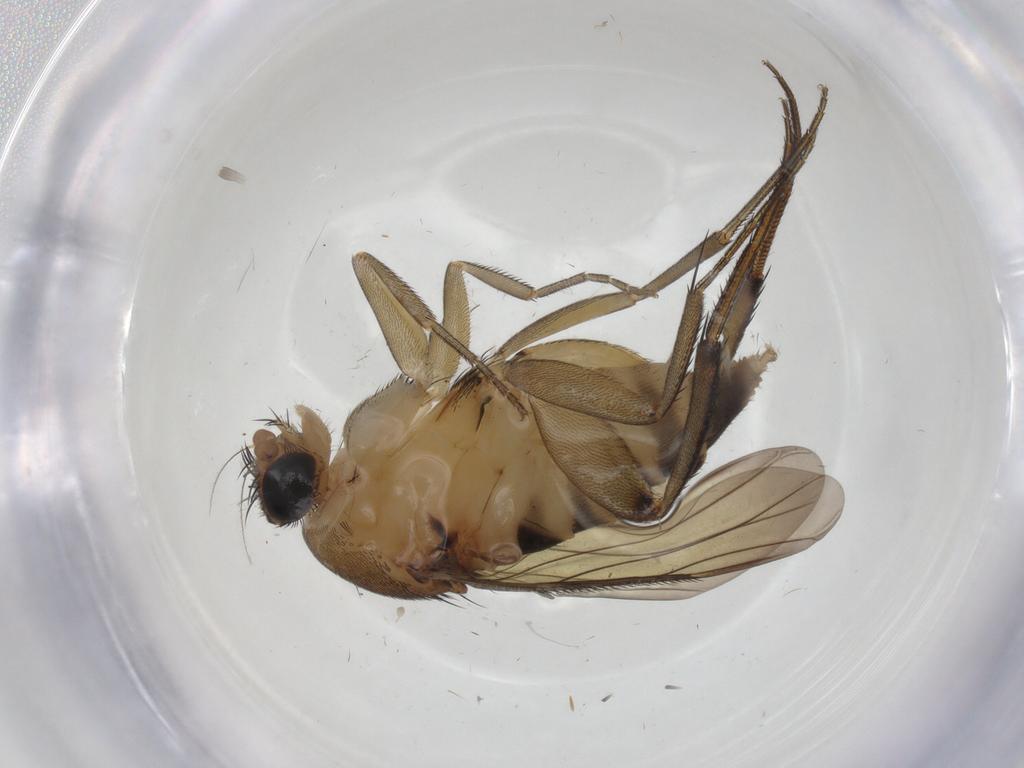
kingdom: Animalia
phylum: Arthropoda
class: Insecta
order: Diptera
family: Phoridae
